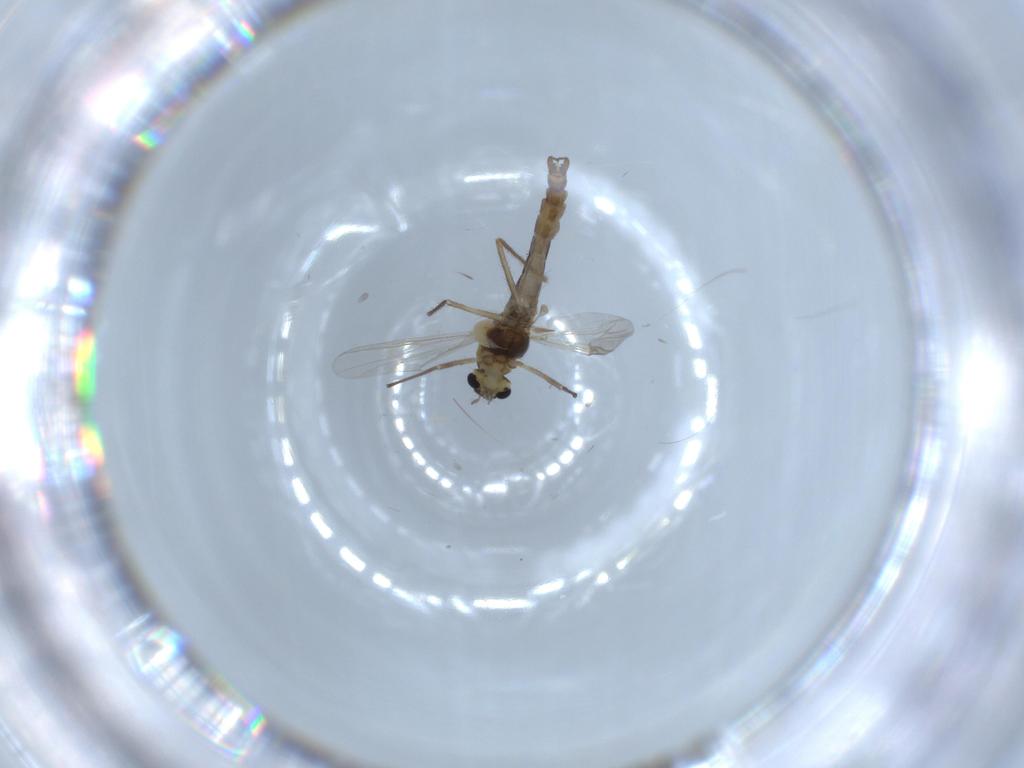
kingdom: Animalia
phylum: Arthropoda
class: Insecta
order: Diptera
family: Chironomidae
